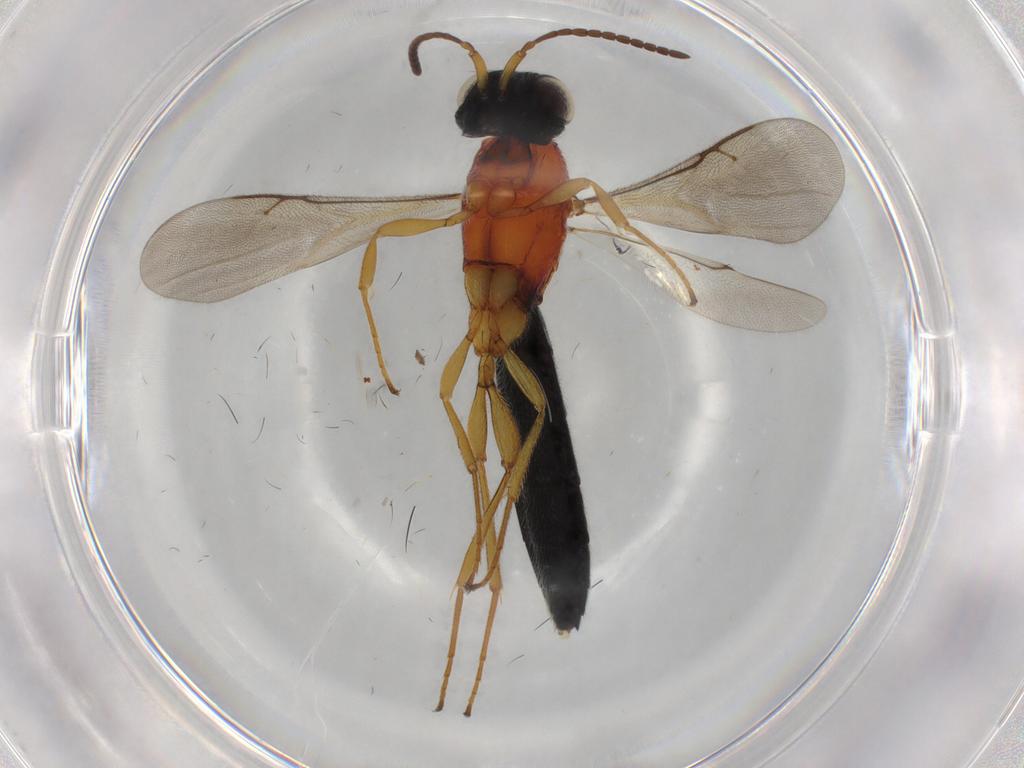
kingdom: Animalia
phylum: Arthropoda
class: Insecta
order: Hymenoptera
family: Scelionidae
